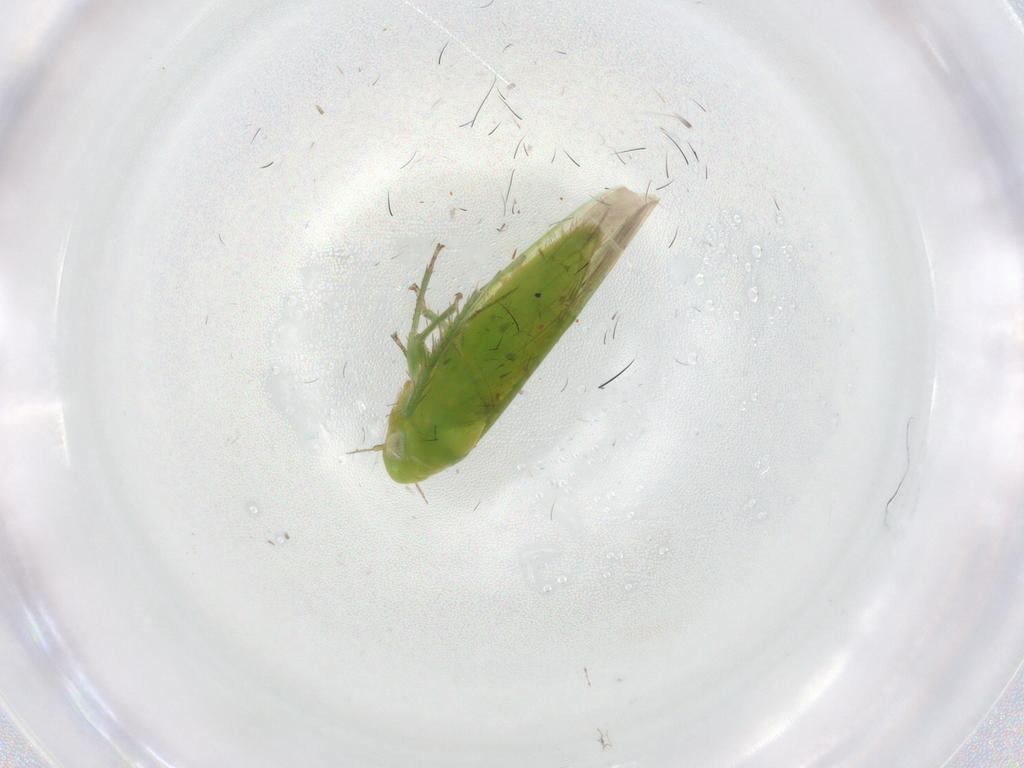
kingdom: Animalia
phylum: Arthropoda
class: Insecta
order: Hemiptera
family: Cicadellidae
